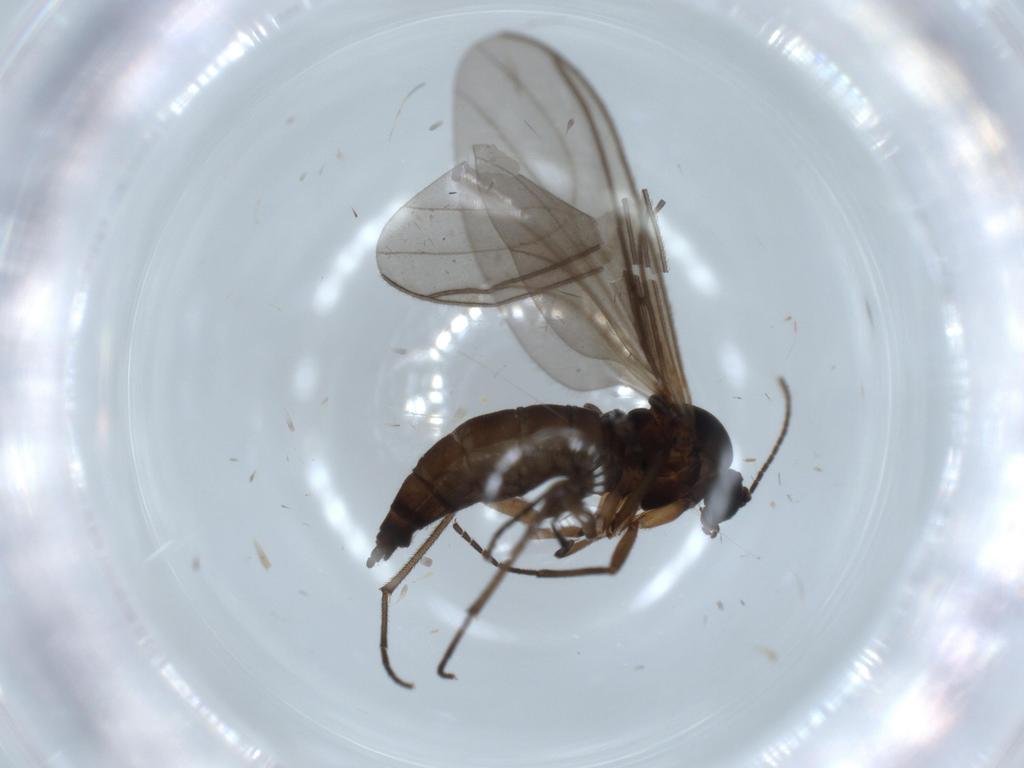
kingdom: Animalia
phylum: Arthropoda
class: Insecta
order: Diptera
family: Sciaridae
